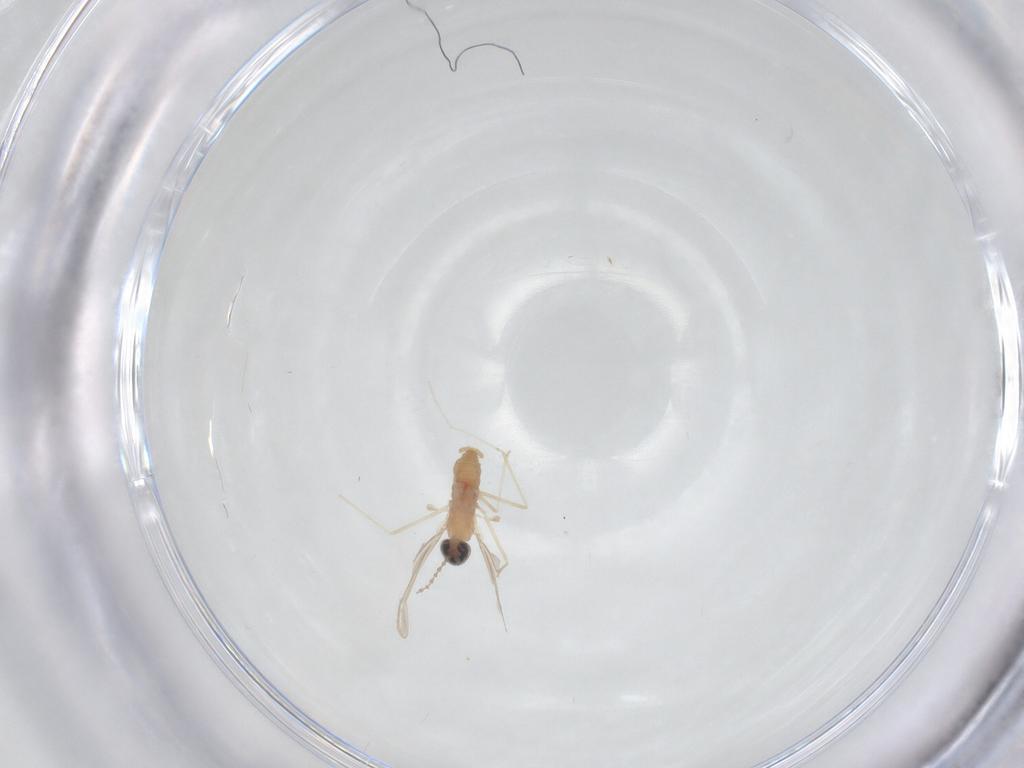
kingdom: Animalia
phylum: Arthropoda
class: Insecta
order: Diptera
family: Cecidomyiidae
